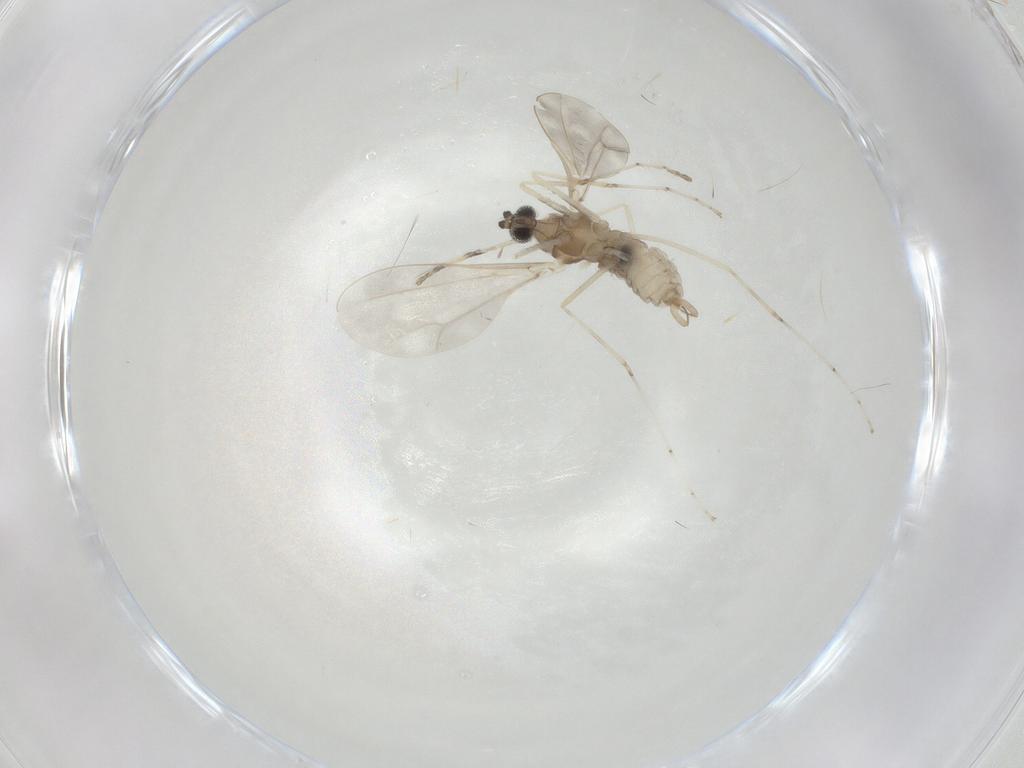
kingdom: Animalia
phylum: Arthropoda
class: Insecta
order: Diptera
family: Cecidomyiidae
